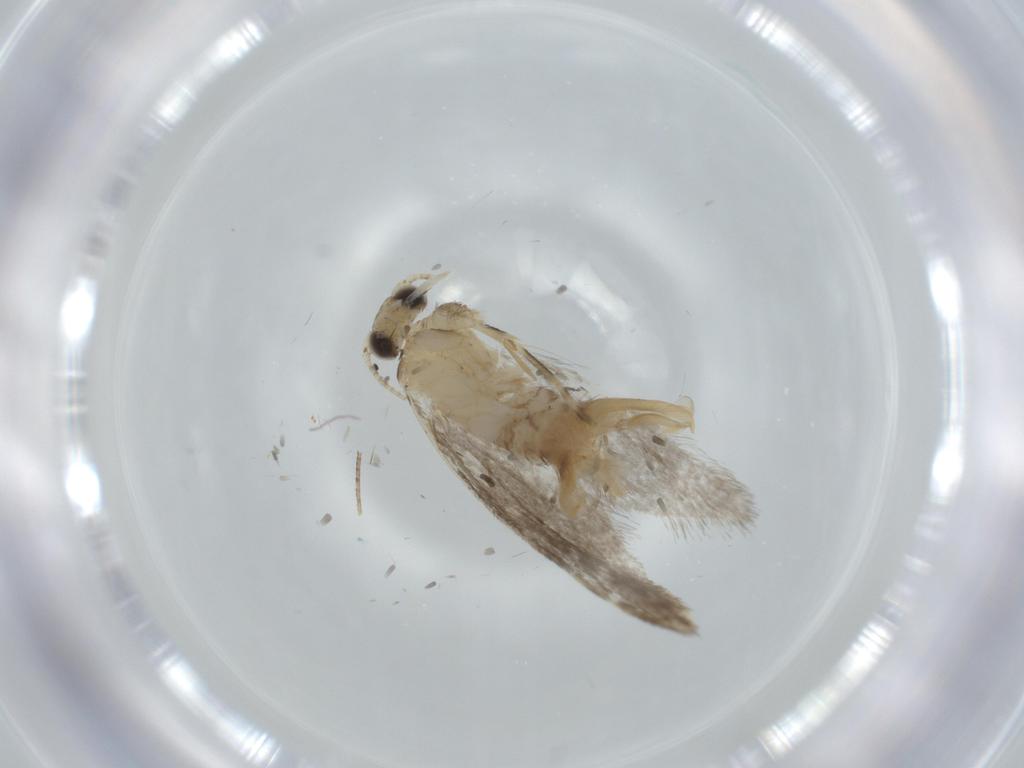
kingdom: Animalia
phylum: Arthropoda
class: Insecta
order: Lepidoptera
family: Tineidae
